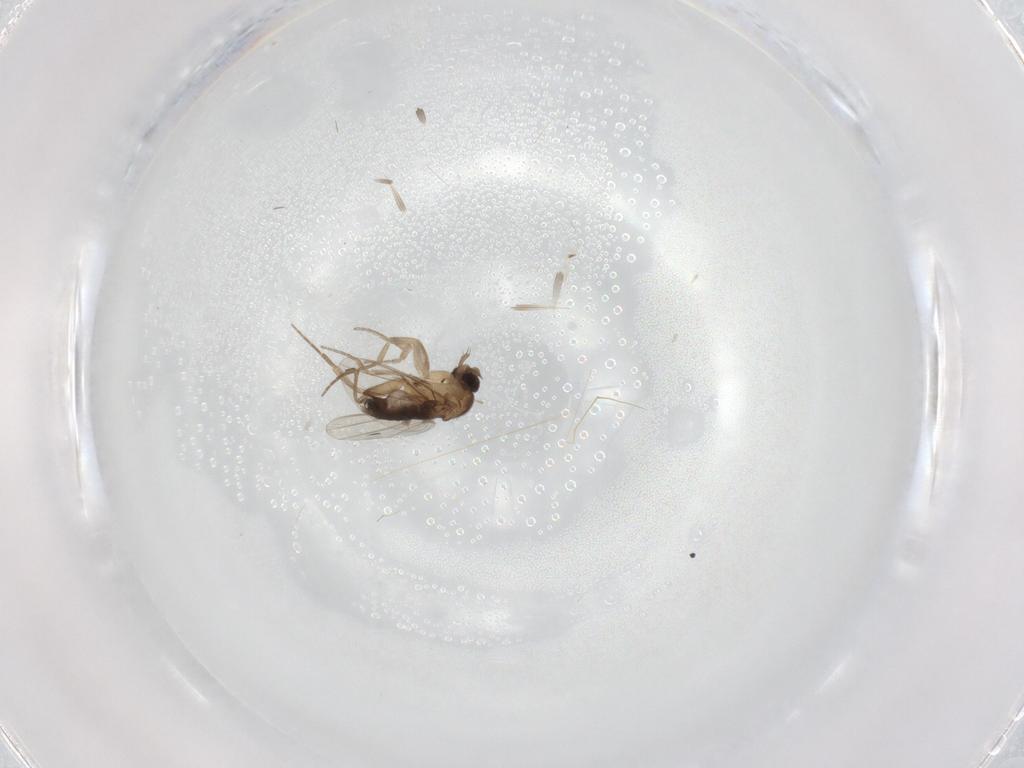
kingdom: Animalia
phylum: Arthropoda
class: Insecta
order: Diptera
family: Phoridae
